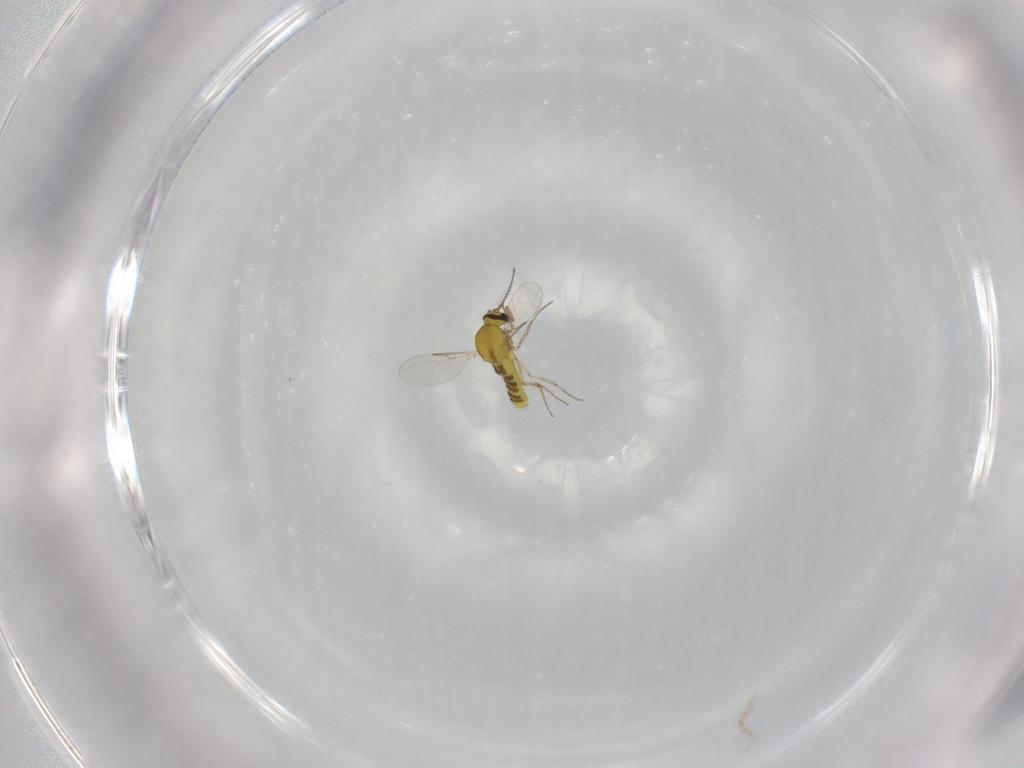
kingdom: Animalia
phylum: Arthropoda
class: Insecta
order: Diptera
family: Cecidomyiidae
